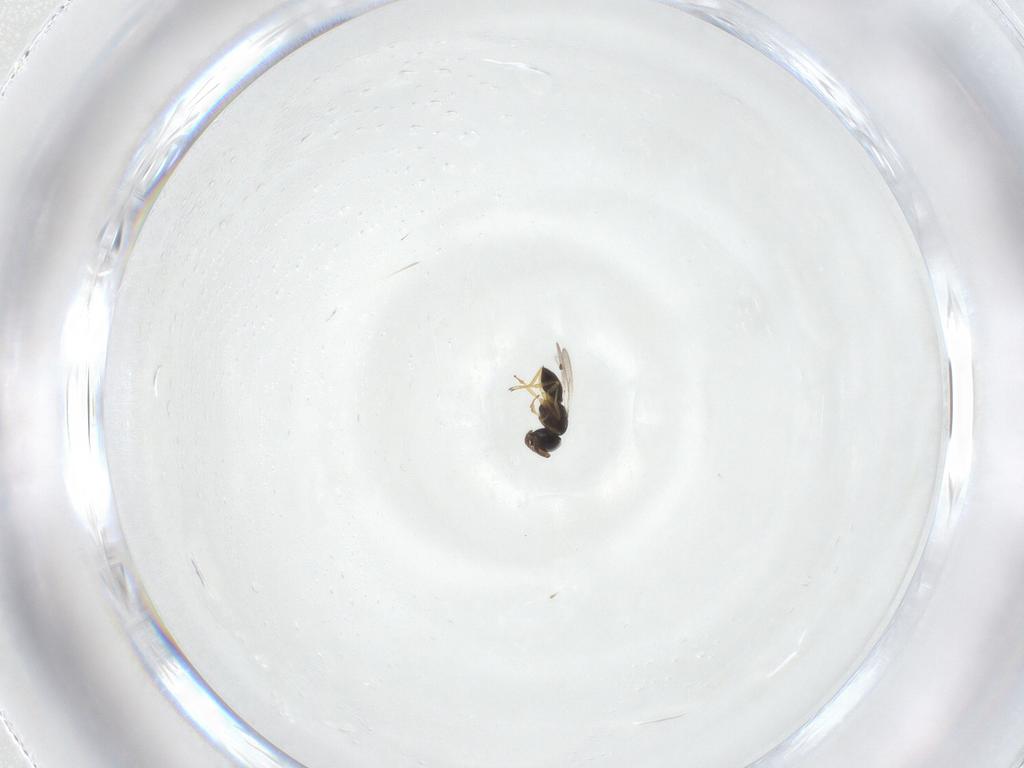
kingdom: Animalia
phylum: Arthropoda
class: Insecta
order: Hymenoptera
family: Scelionidae
